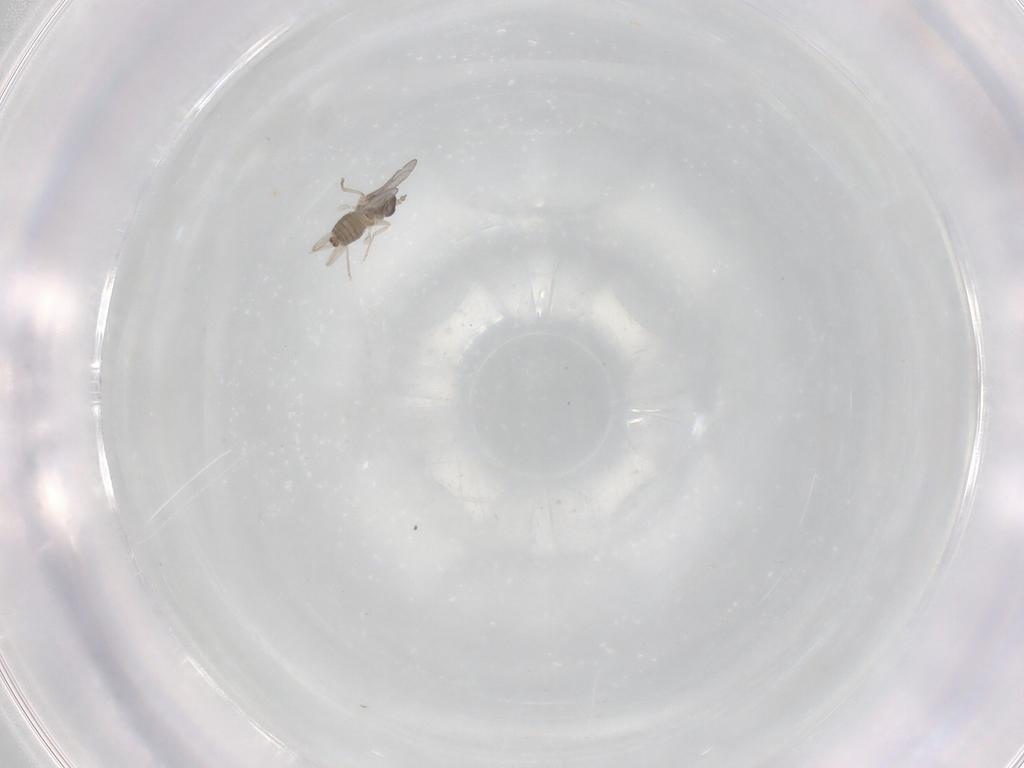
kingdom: Animalia
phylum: Arthropoda
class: Insecta
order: Diptera
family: Cecidomyiidae
